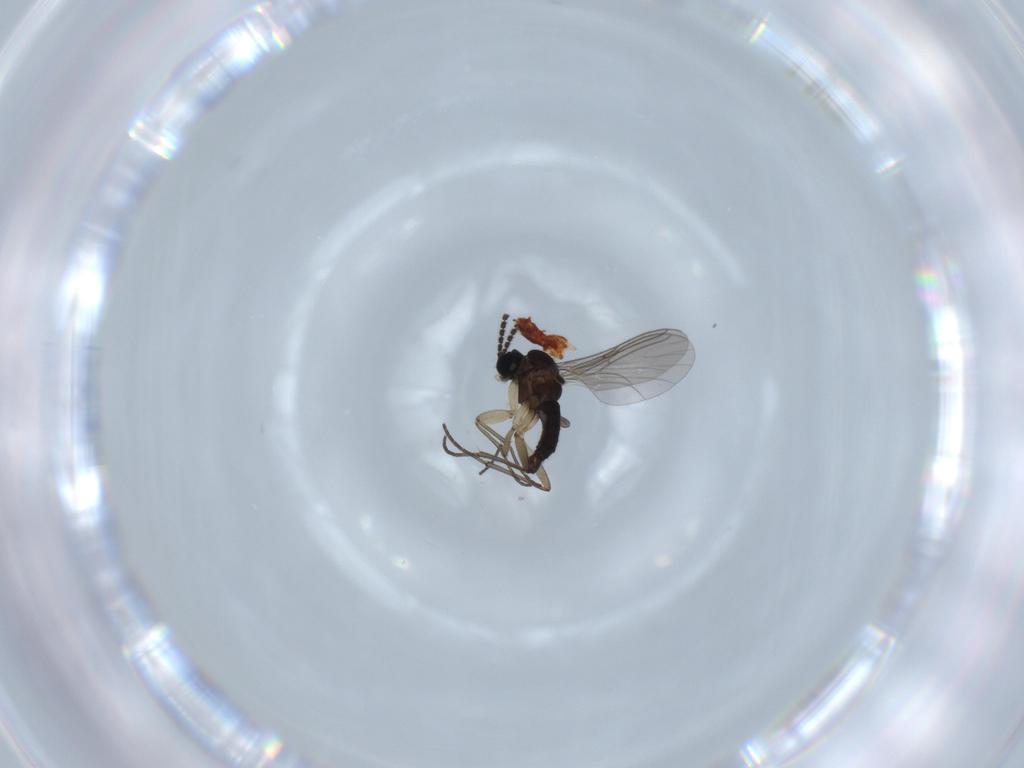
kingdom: Animalia
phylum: Arthropoda
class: Insecta
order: Diptera
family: Sciaridae
